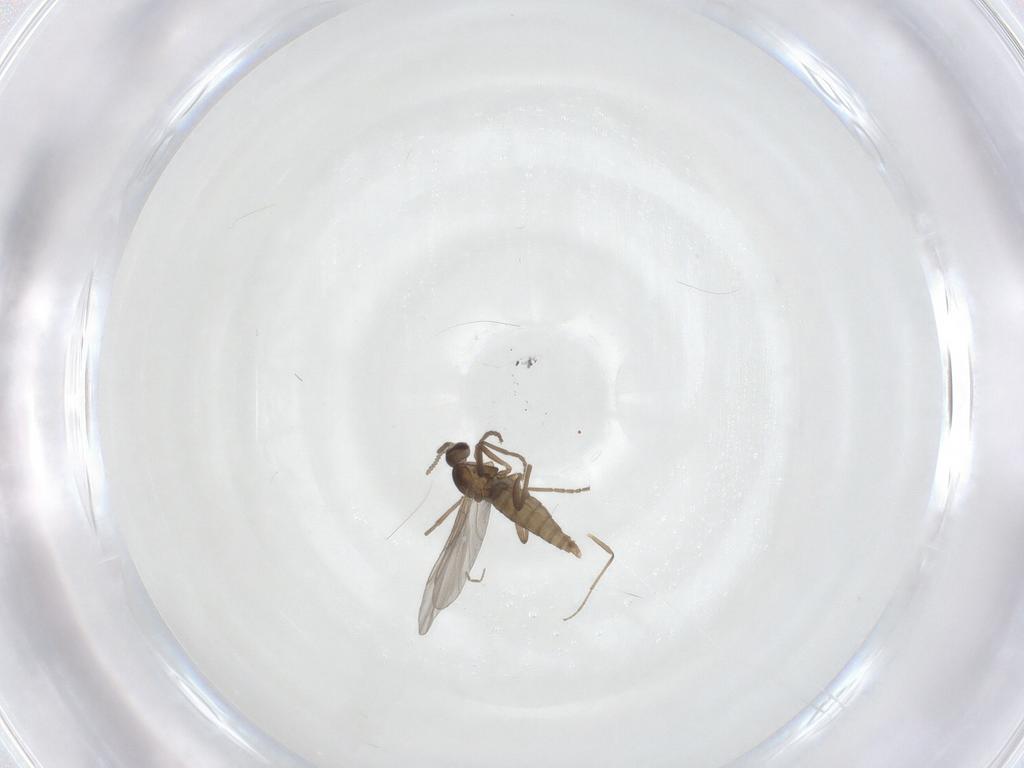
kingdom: Animalia
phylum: Arthropoda
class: Insecta
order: Diptera
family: Cecidomyiidae
